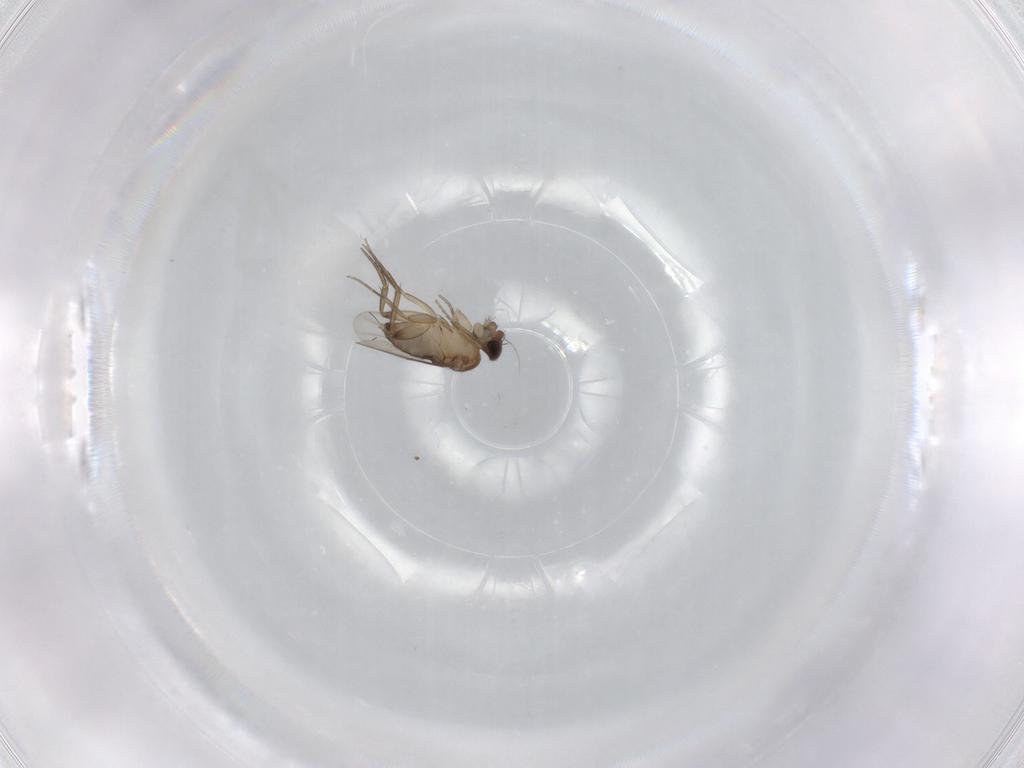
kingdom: Animalia
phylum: Arthropoda
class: Insecta
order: Diptera
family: Phoridae
